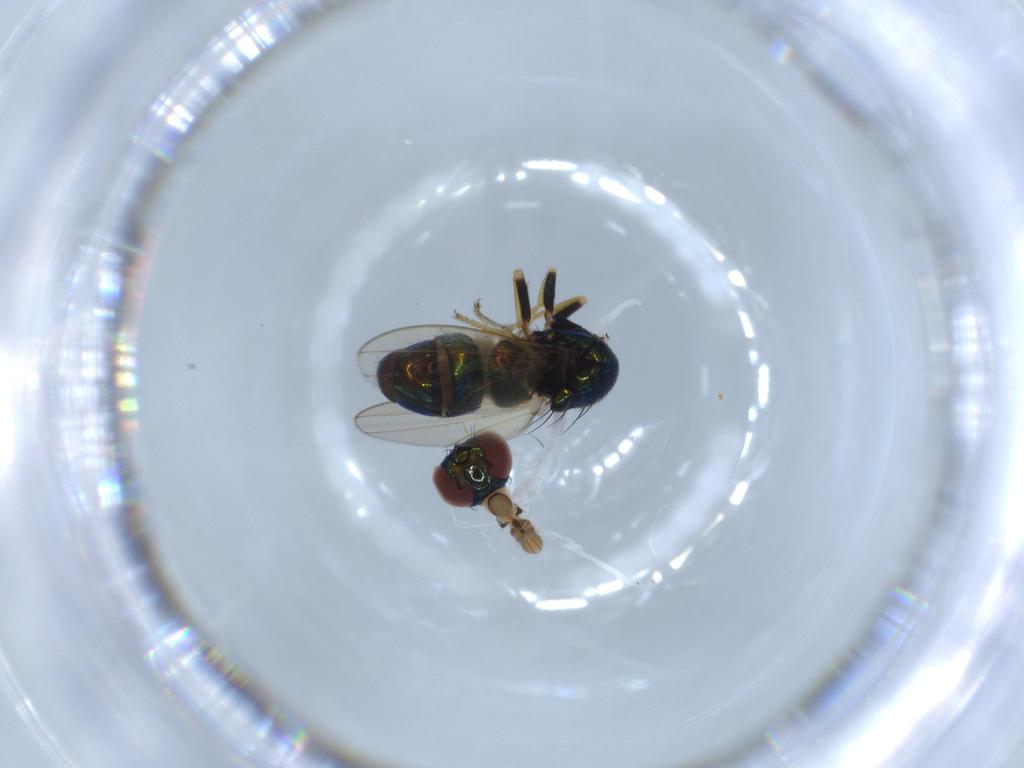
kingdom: Animalia
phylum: Arthropoda
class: Insecta
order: Diptera
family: Ephydridae
